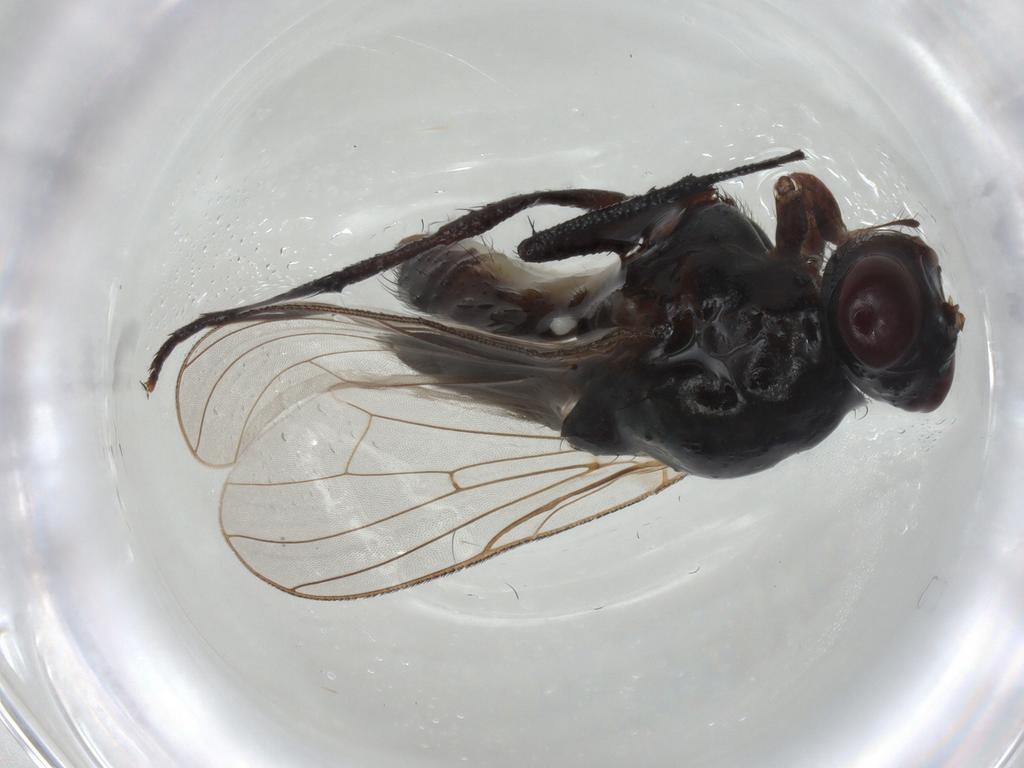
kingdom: Animalia
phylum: Arthropoda
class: Insecta
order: Diptera
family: Anthomyiidae
